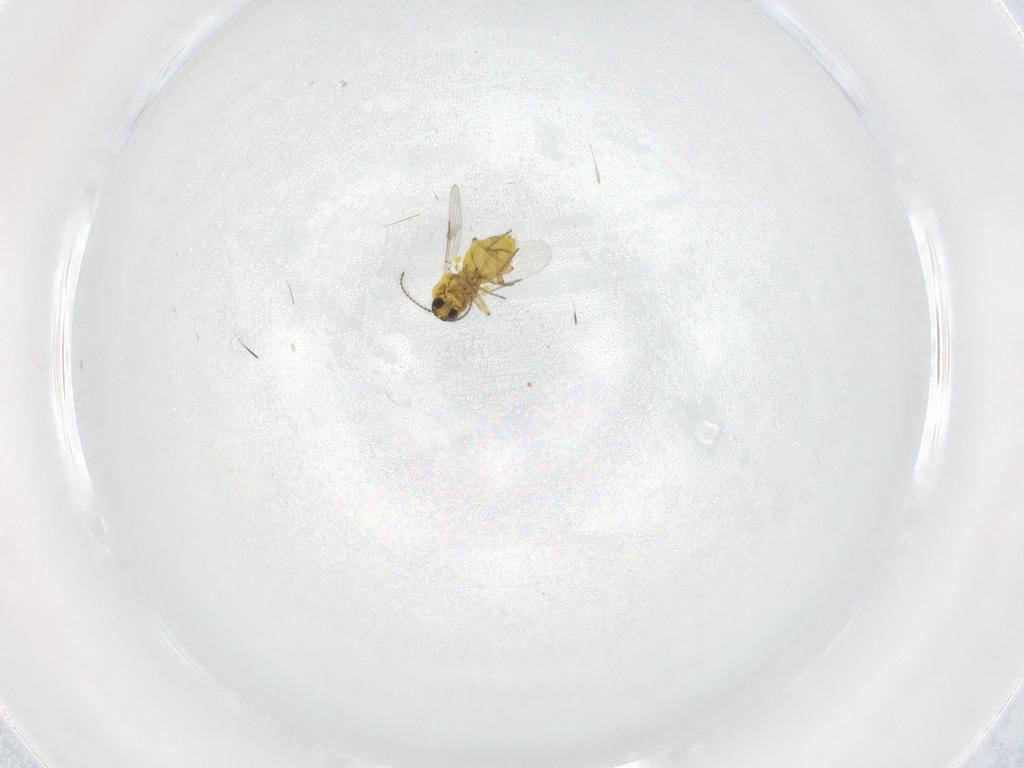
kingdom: Animalia
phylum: Arthropoda
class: Insecta
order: Diptera
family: Ceratopogonidae
